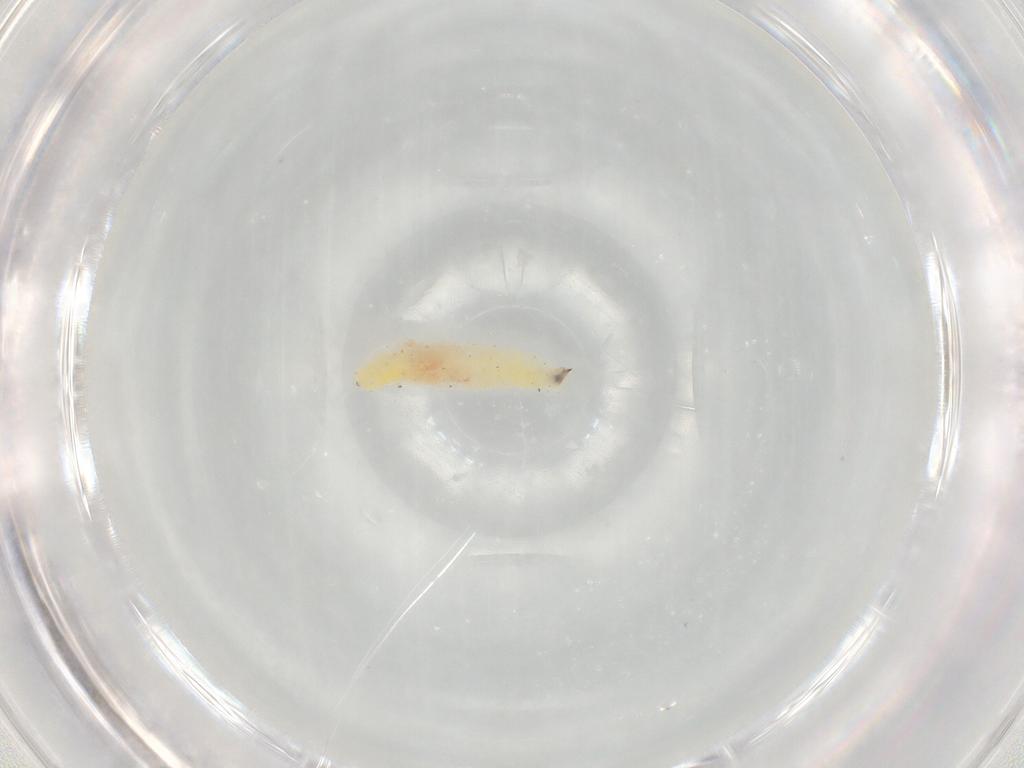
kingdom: Animalia
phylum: Arthropoda
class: Insecta
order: Diptera
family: Syrphidae
